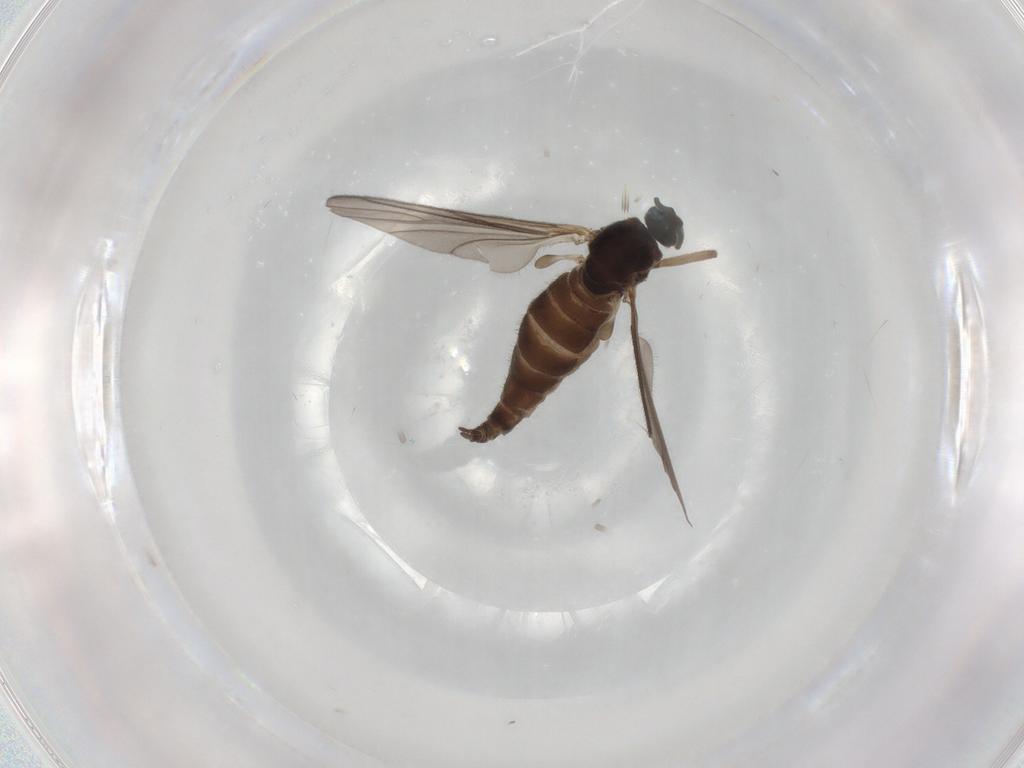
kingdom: Animalia
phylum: Arthropoda
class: Insecta
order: Diptera
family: Sciaridae
